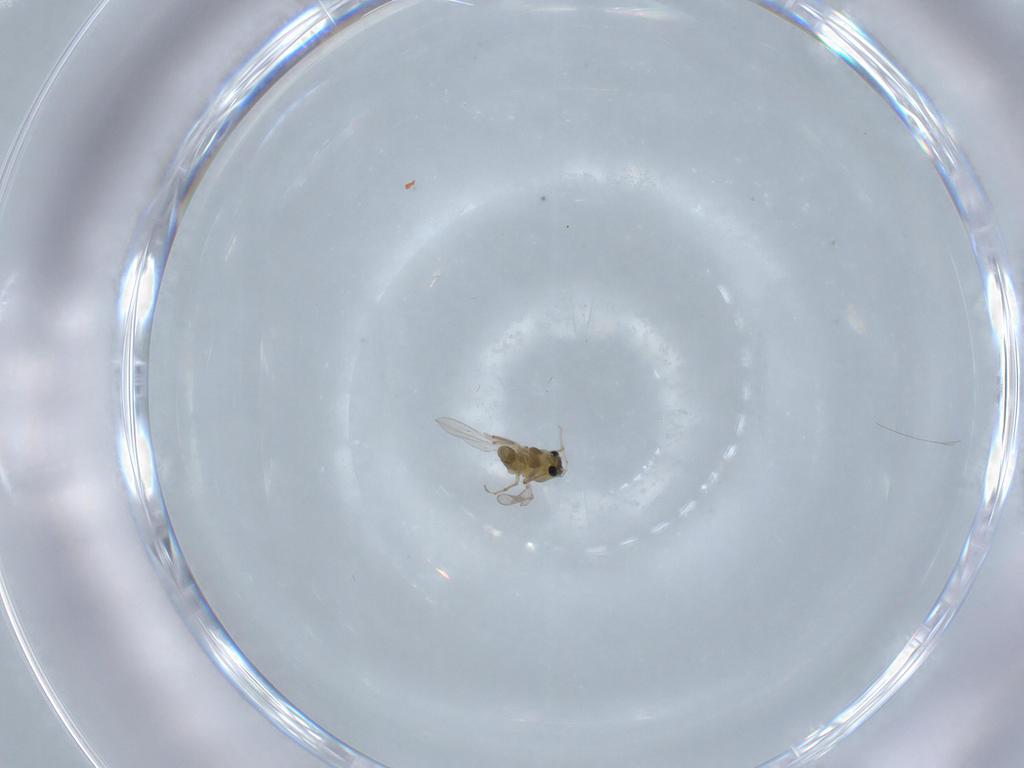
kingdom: Animalia
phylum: Arthropoda
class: Insecta
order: Diptera
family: Chironomidae
